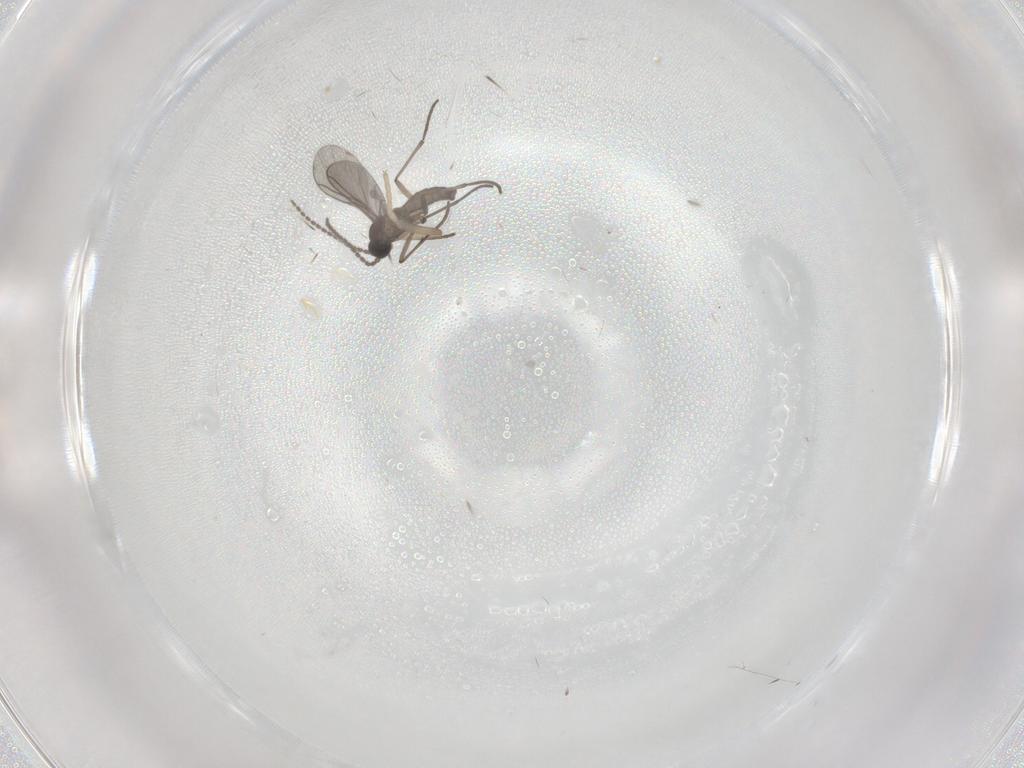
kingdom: Animalia
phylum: Arthropoda
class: Insecta
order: Diptera
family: Sciaridae
